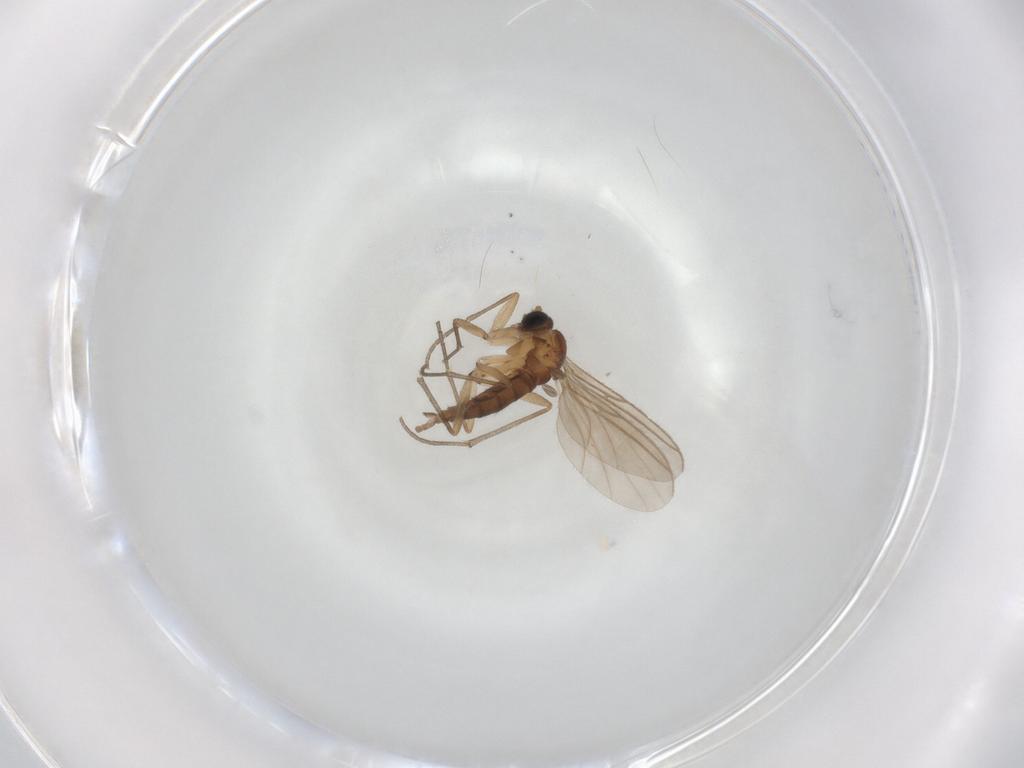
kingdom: Animalia
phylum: Arthropoda
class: Insecta
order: Diptera
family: Sciaridae
